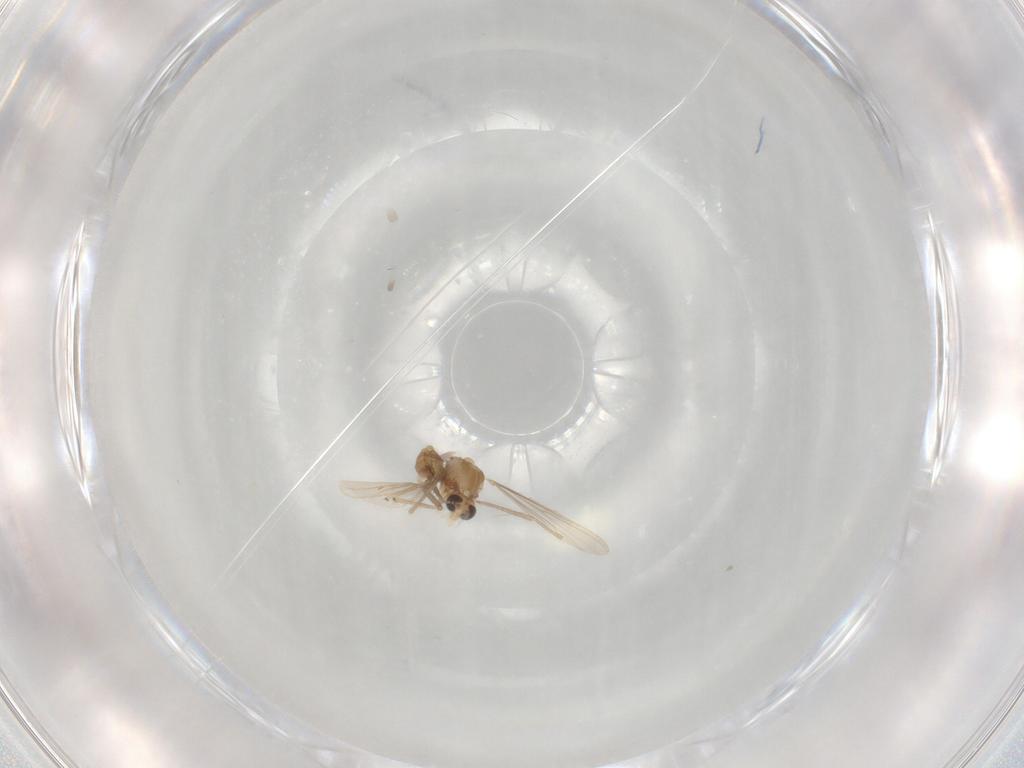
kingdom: Animalia
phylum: Arthropoda
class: Insecta
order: Diptera
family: Chironomidae
